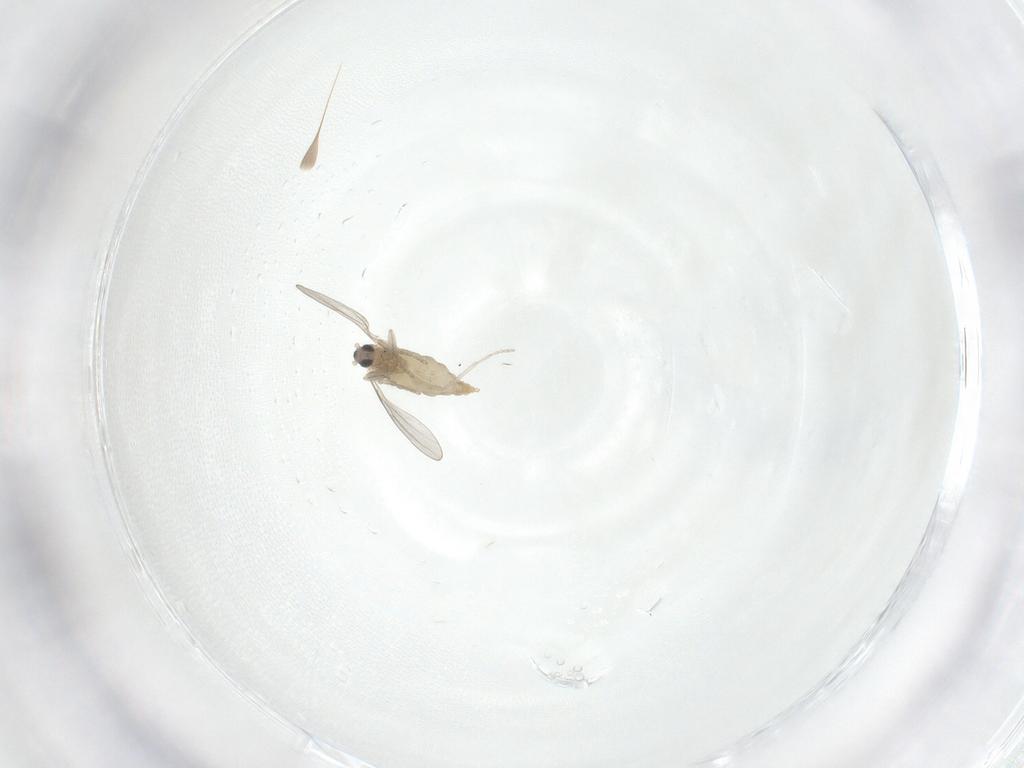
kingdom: Animalia
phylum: Arthropoda
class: Insecta
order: Diptera
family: Cecidomyiidae
